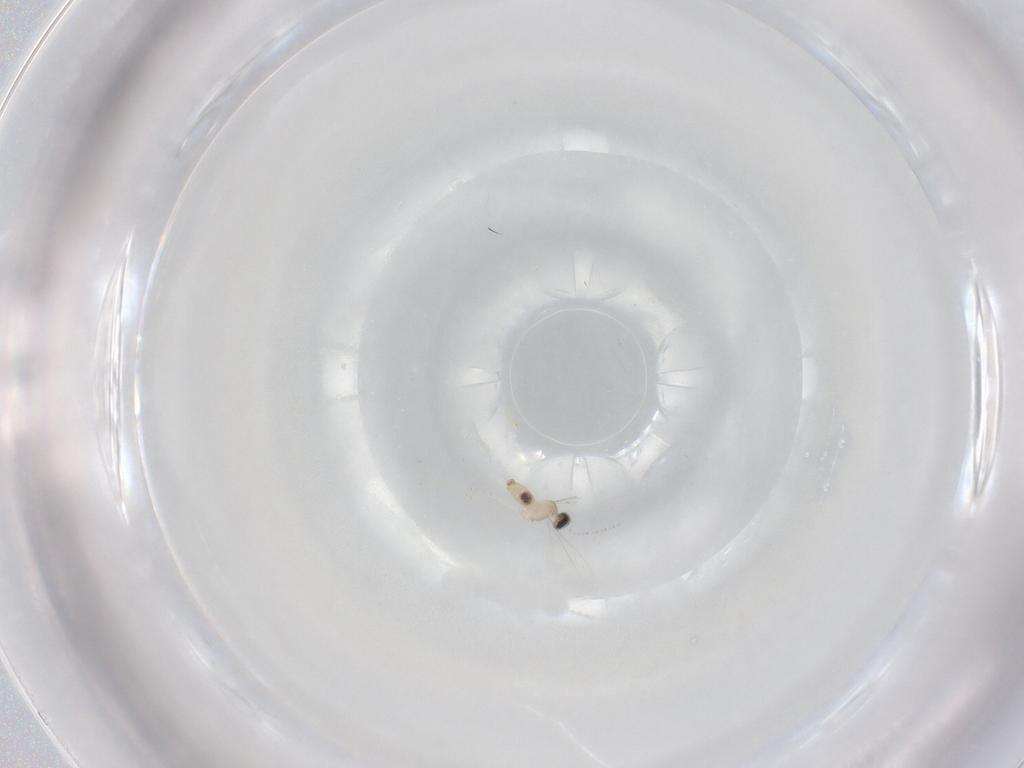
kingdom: Animalia
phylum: Arthropoda
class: Insecta
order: Diptera
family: Cecidomyiidae
